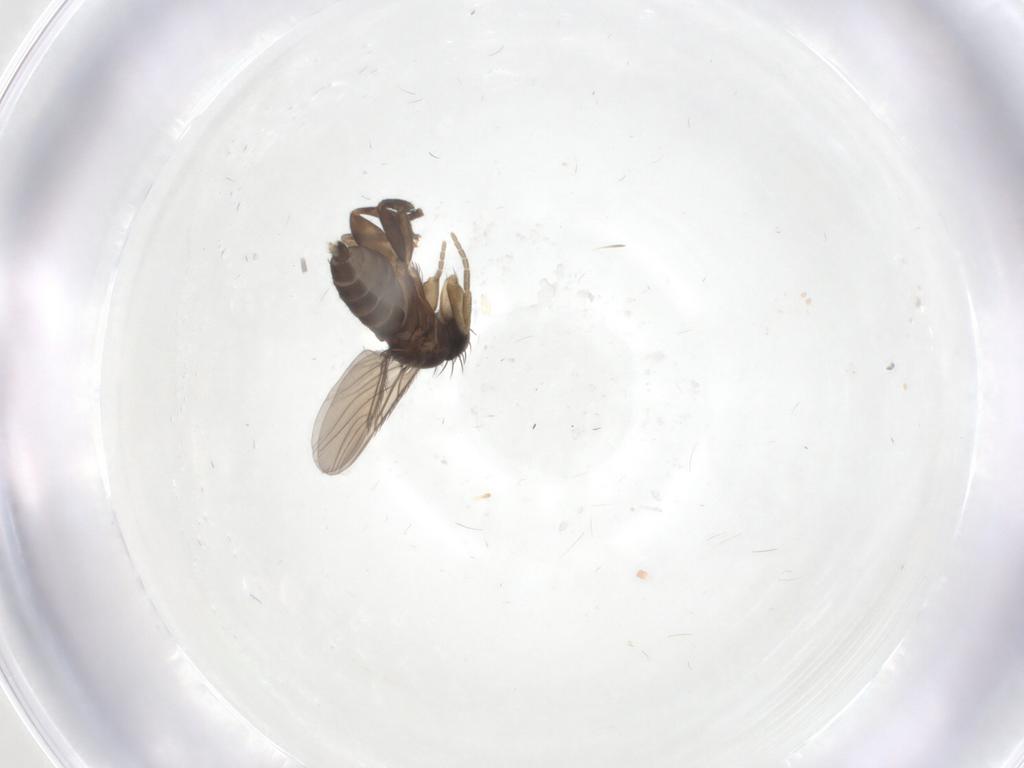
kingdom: Animalia
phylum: Arthropoda
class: Insecta
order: Diptera
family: Phoridae
